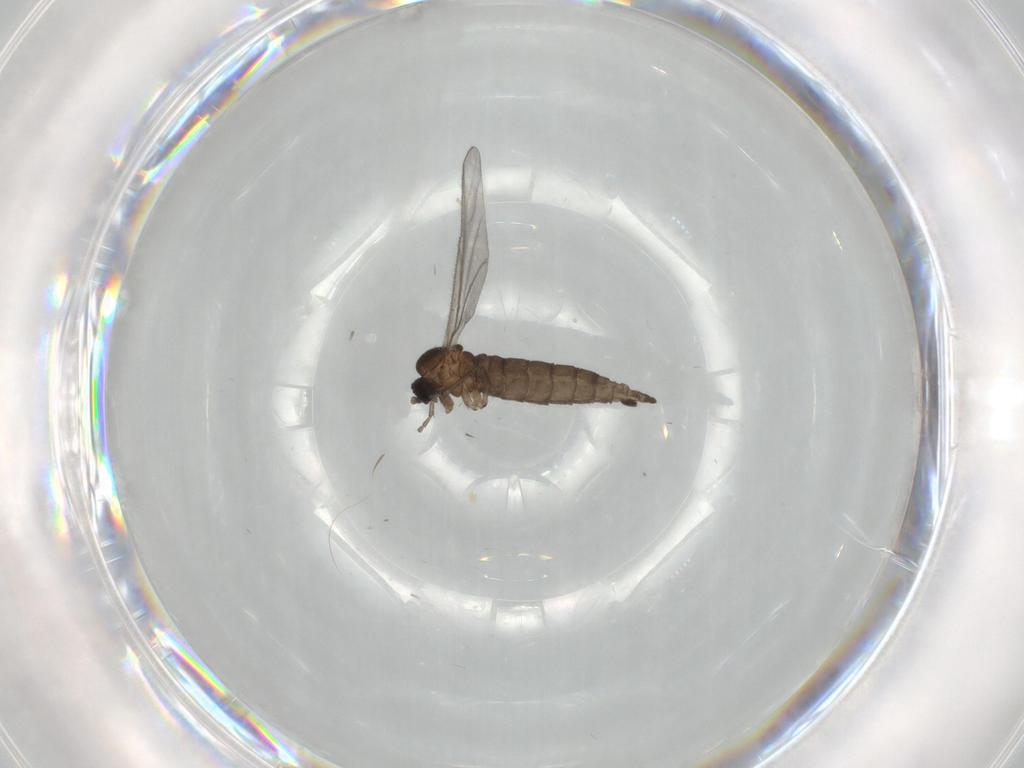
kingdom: Animalia
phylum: Arthropoda
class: Insecta
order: Diptera
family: Sciaridae
